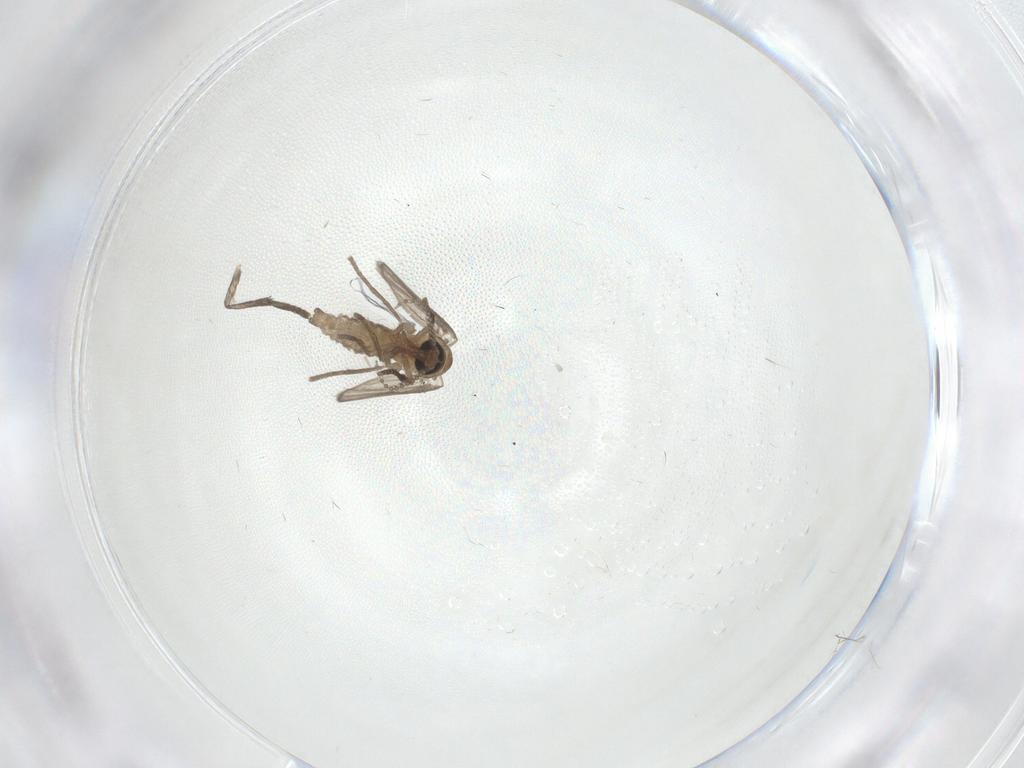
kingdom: Animalia
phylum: Arthropoda
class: Insecta
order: Diptera
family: Psychodidae
